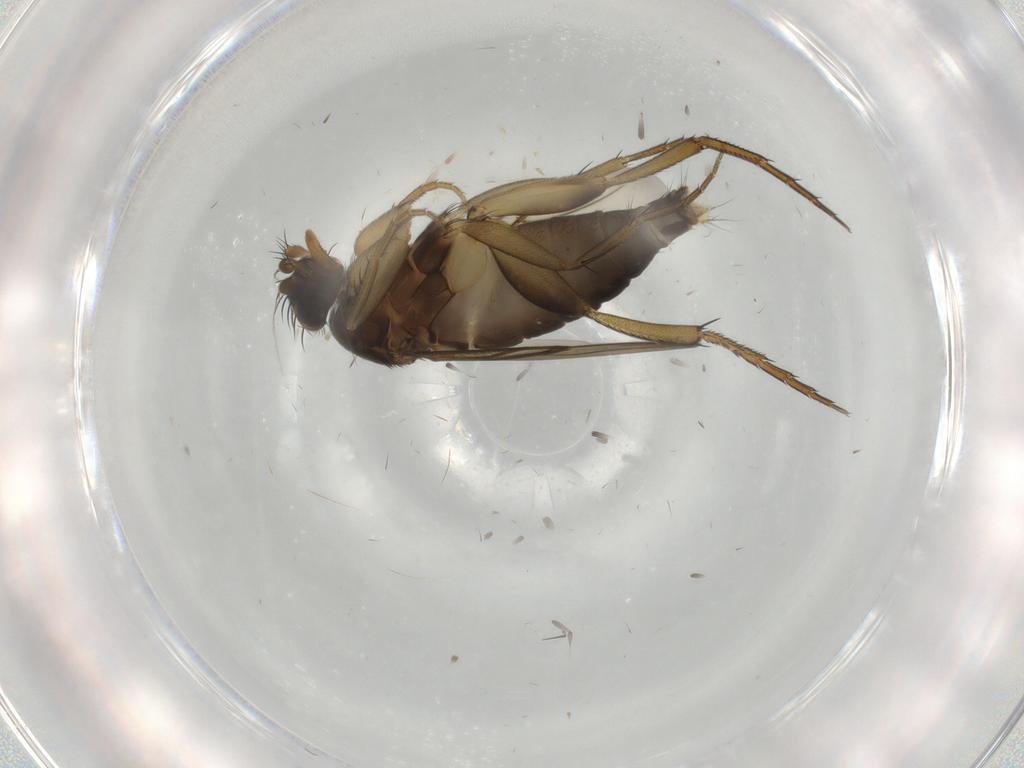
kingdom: Animalia
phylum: Arthropoda
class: Insecta
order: Diptera
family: Phoridae
